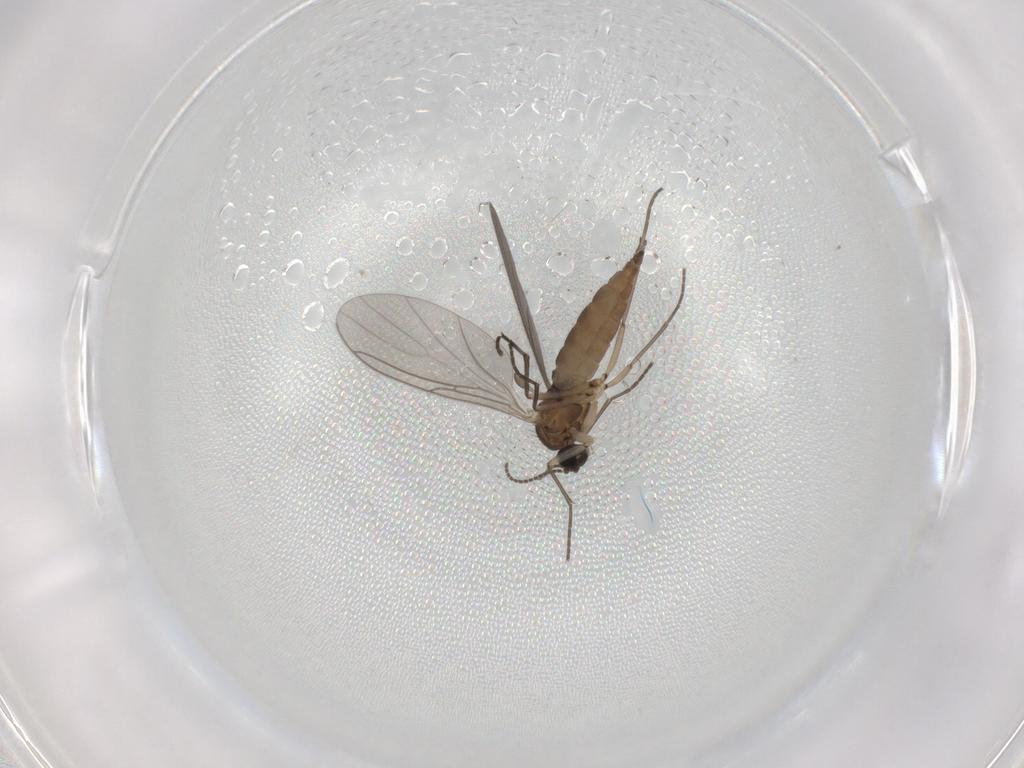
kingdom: Animalia
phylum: Arthropoda
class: Insecta
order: Diptera
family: Sciaridae
